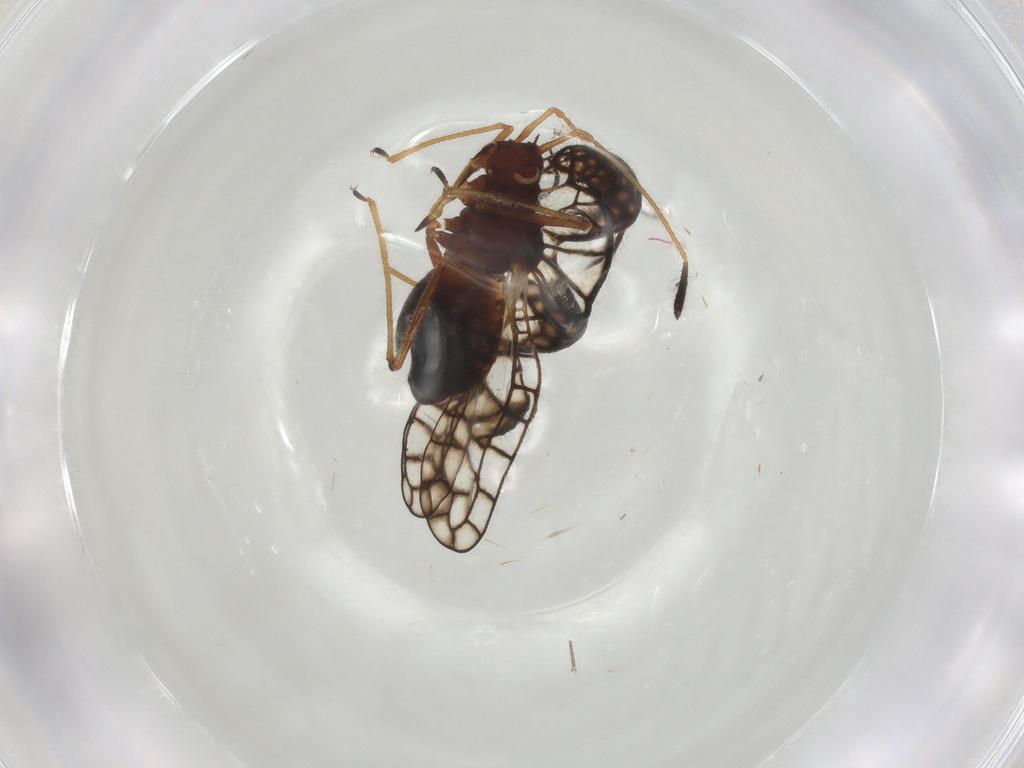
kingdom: Animalia
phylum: Arthropoda
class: Insecta
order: Hemiptera
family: Tingidae
